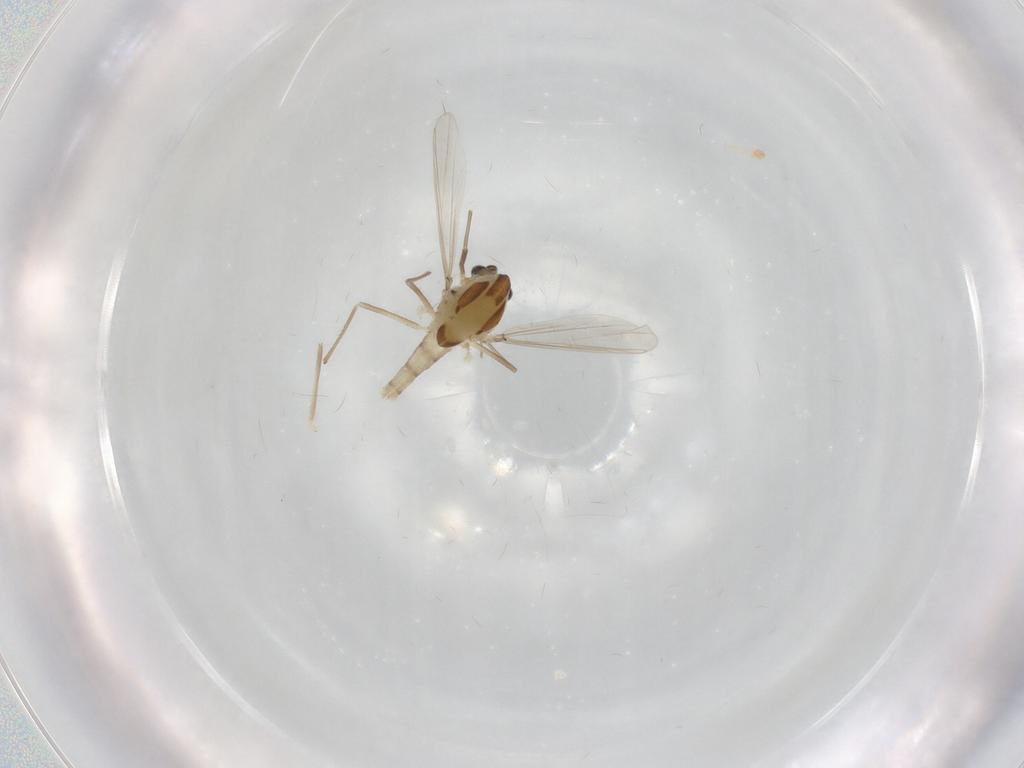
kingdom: Animalia
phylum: Arthropoda
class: Insecta
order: Diptera
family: Chironomidae
